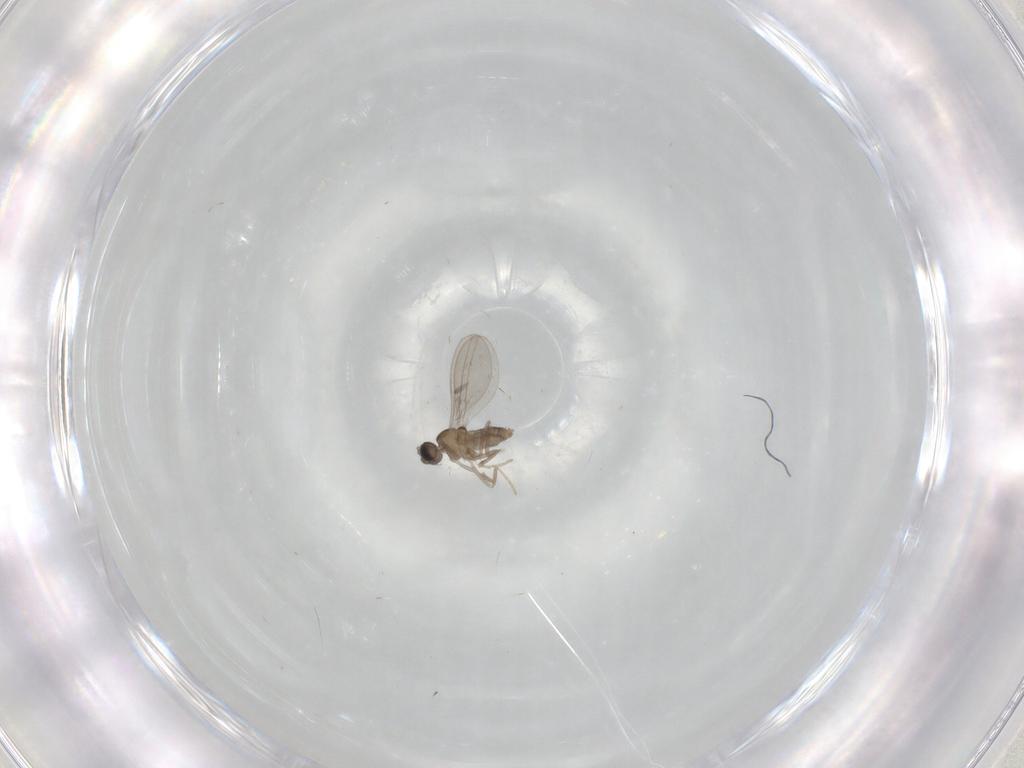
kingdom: Animalia
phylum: Arthropoda
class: Insecta
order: Diptera
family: Cecidomyiidae
